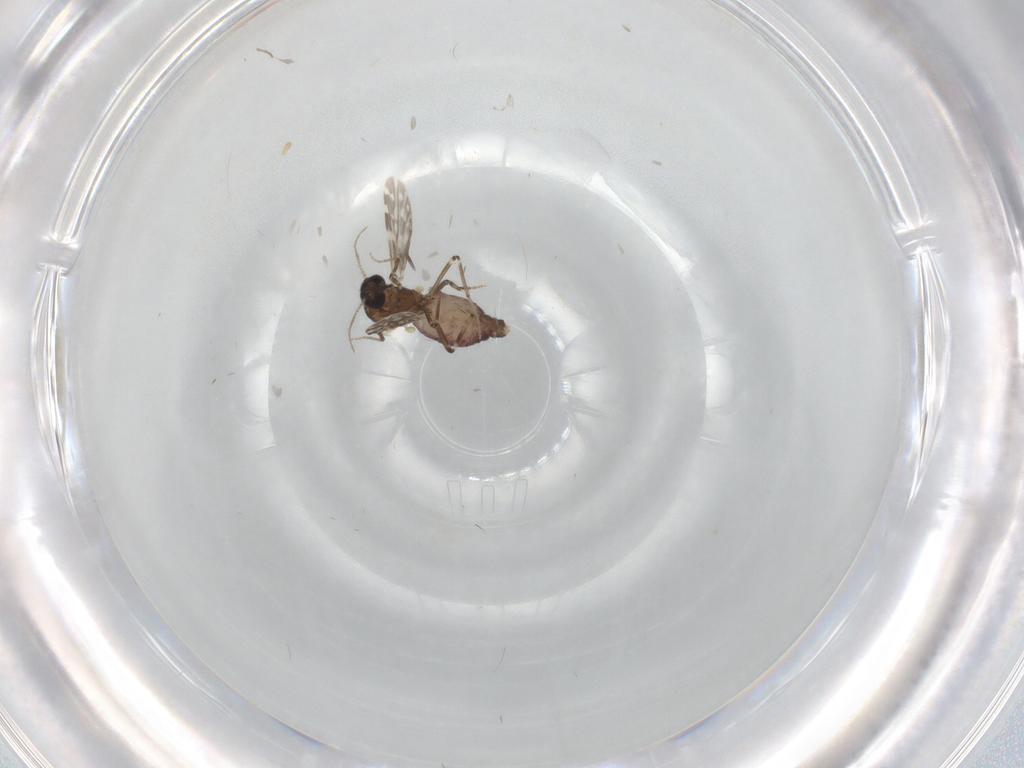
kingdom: Animalia
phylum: Arthropoda
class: Insecta
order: Diptera
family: Ceratopogonidae
